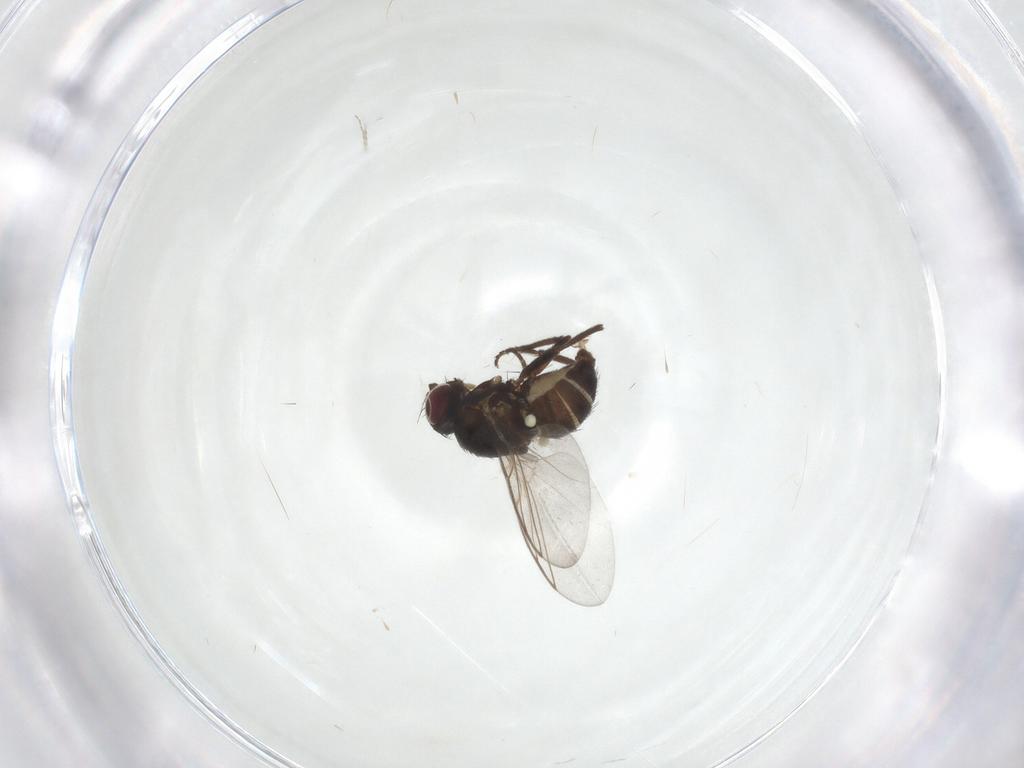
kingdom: Animalia
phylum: Arthropoda
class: Insecta
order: Diptera
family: Agromyzidae
